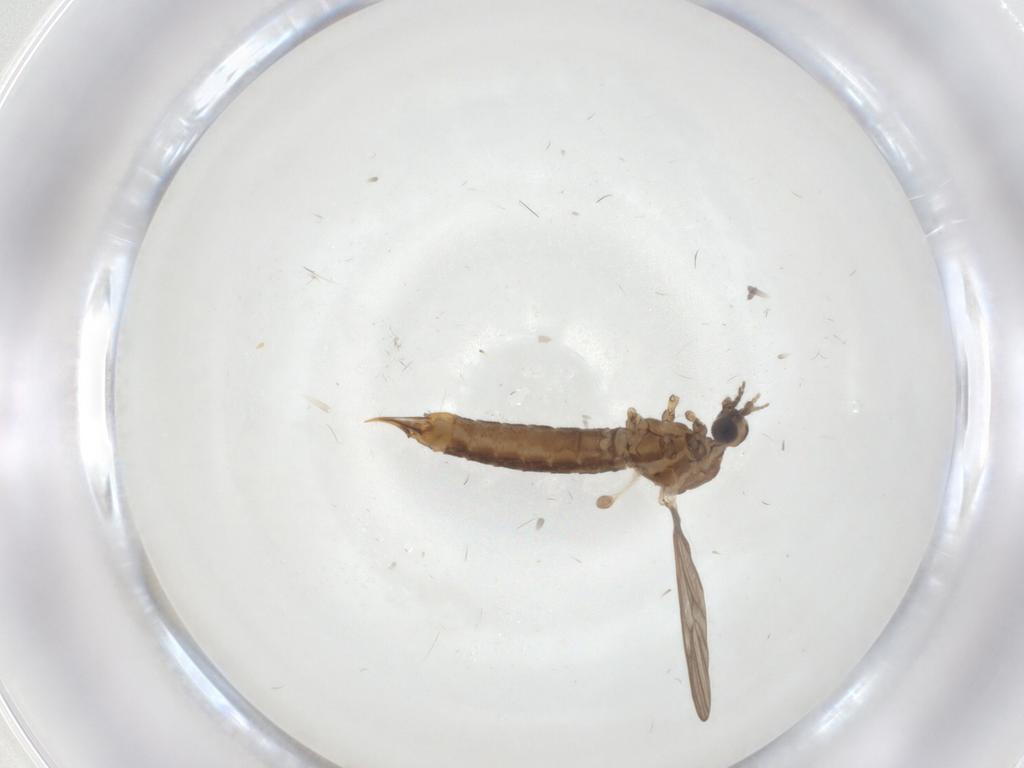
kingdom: Animalia
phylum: Arthropoda
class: Insecta
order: Diptera
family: Limoniidae
